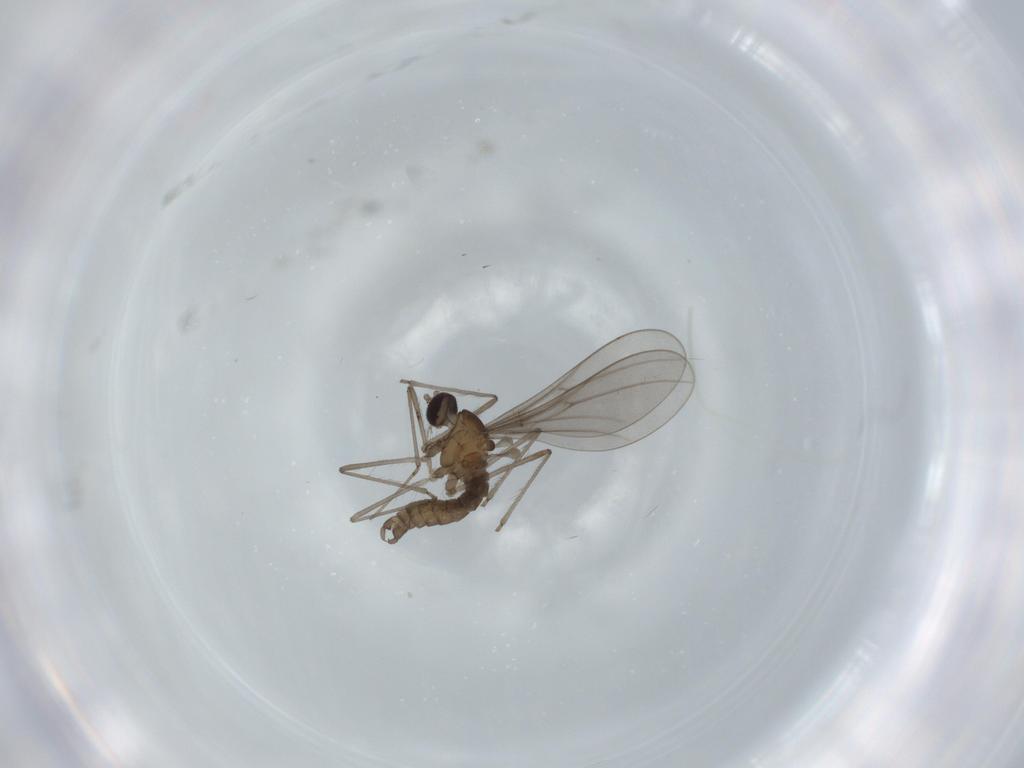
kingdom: Animalia
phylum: Arthropoda
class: Insecta
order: Diptera
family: Cecidomyiidae
